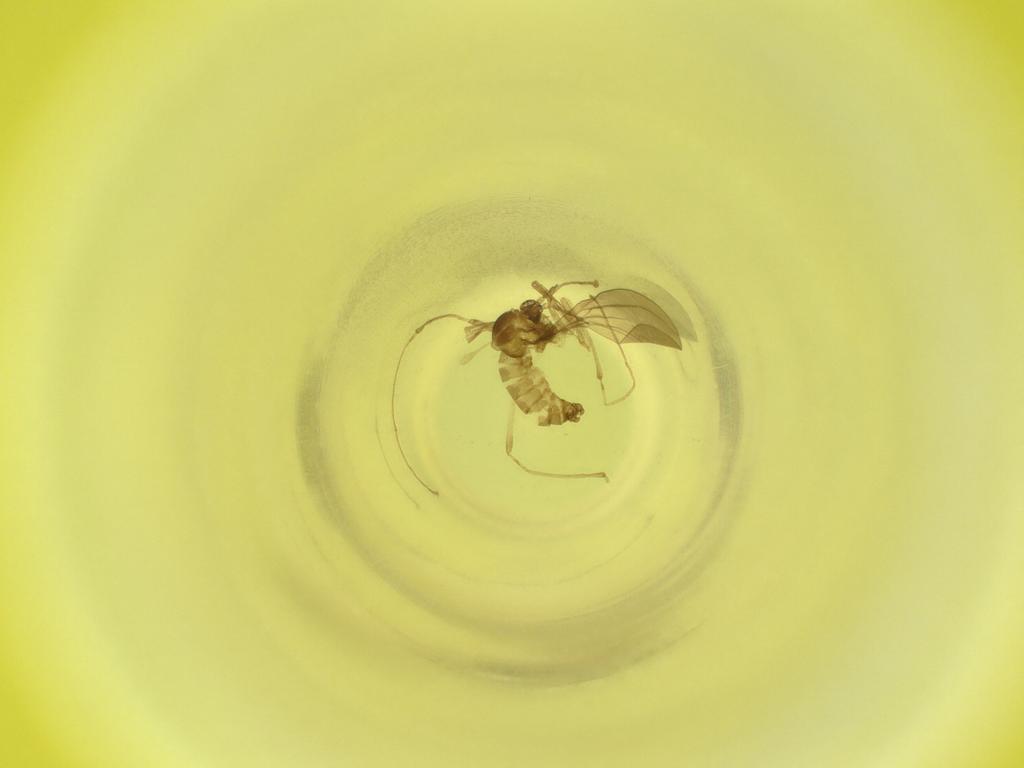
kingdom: Animalia
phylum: Arthropoda
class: Insecta
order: Diptera
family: Cecidomyiidae
